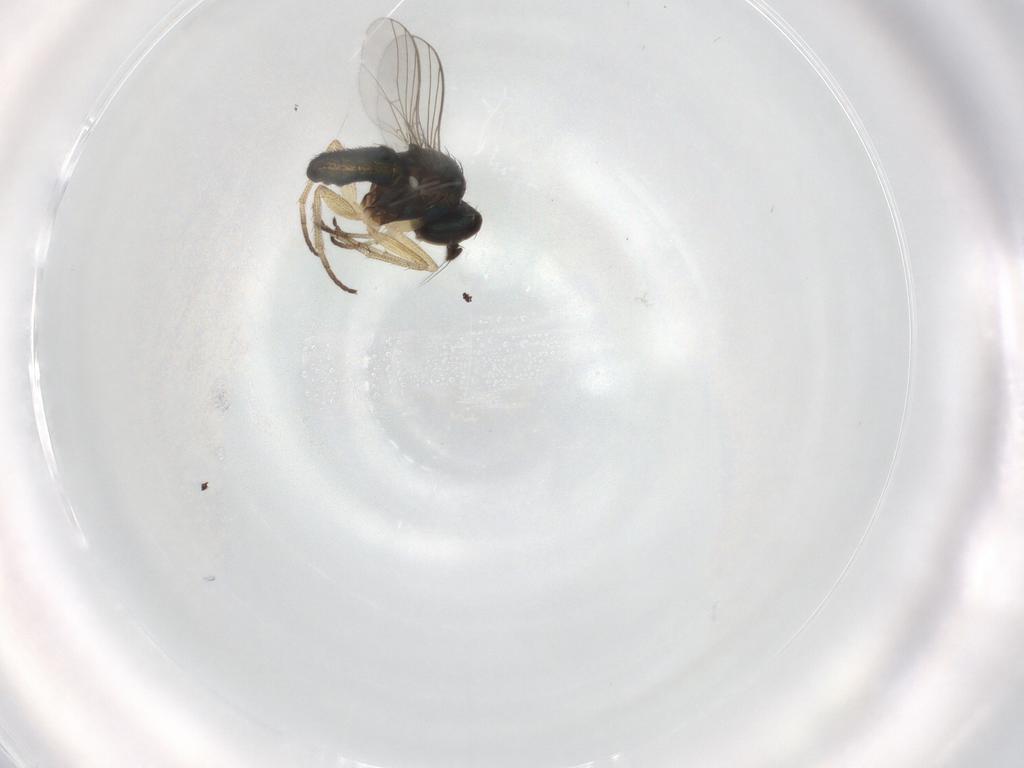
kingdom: Animalia
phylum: Arthropoda
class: Insecta
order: Diptera
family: Dolichopodidae
